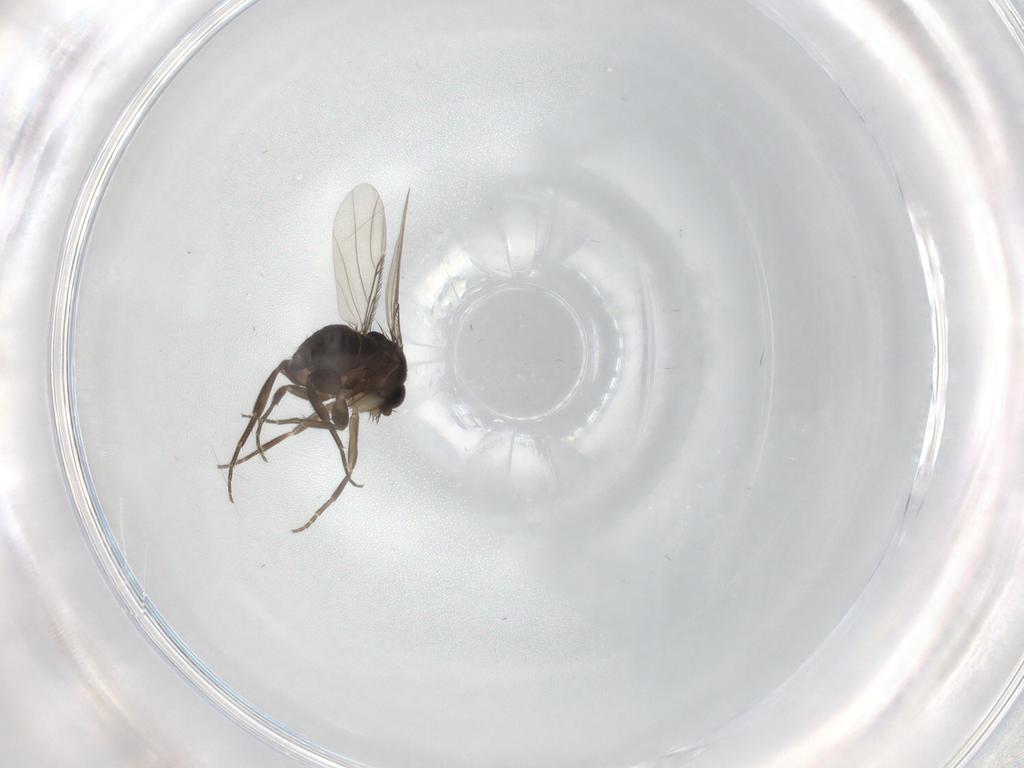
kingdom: Animalia
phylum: Arthropoda
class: Insecta
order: Diptera
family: Phoridae
